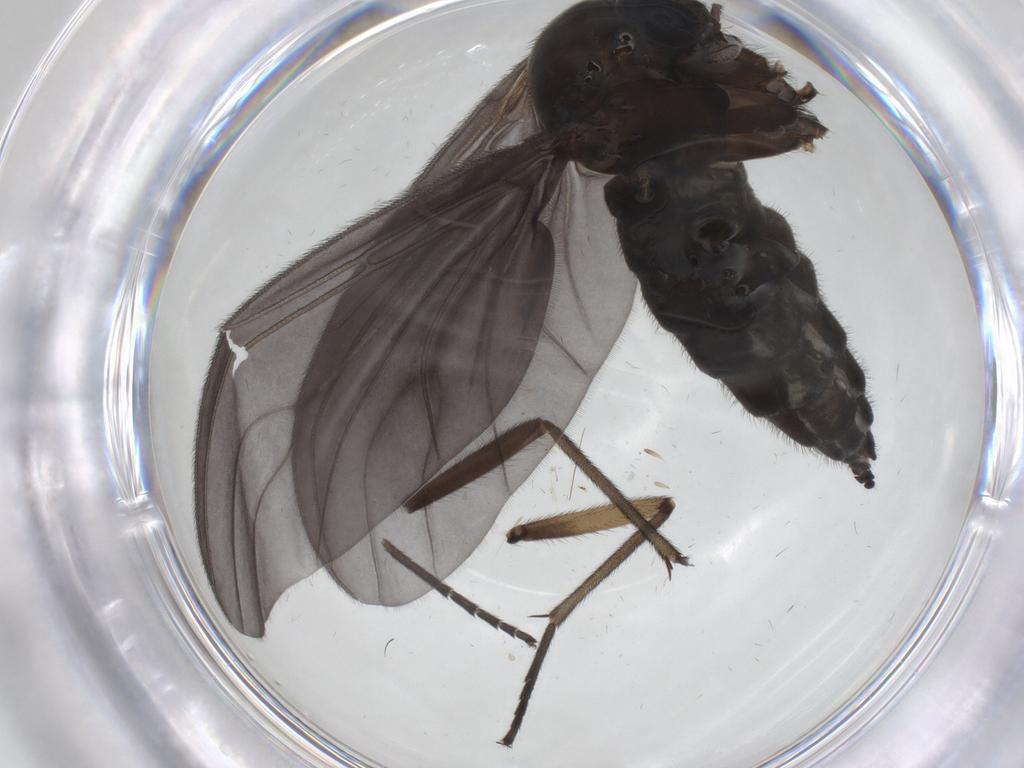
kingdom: Animalia
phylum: Arthropoda
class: Insecta
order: Diptera
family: Sciaridae
